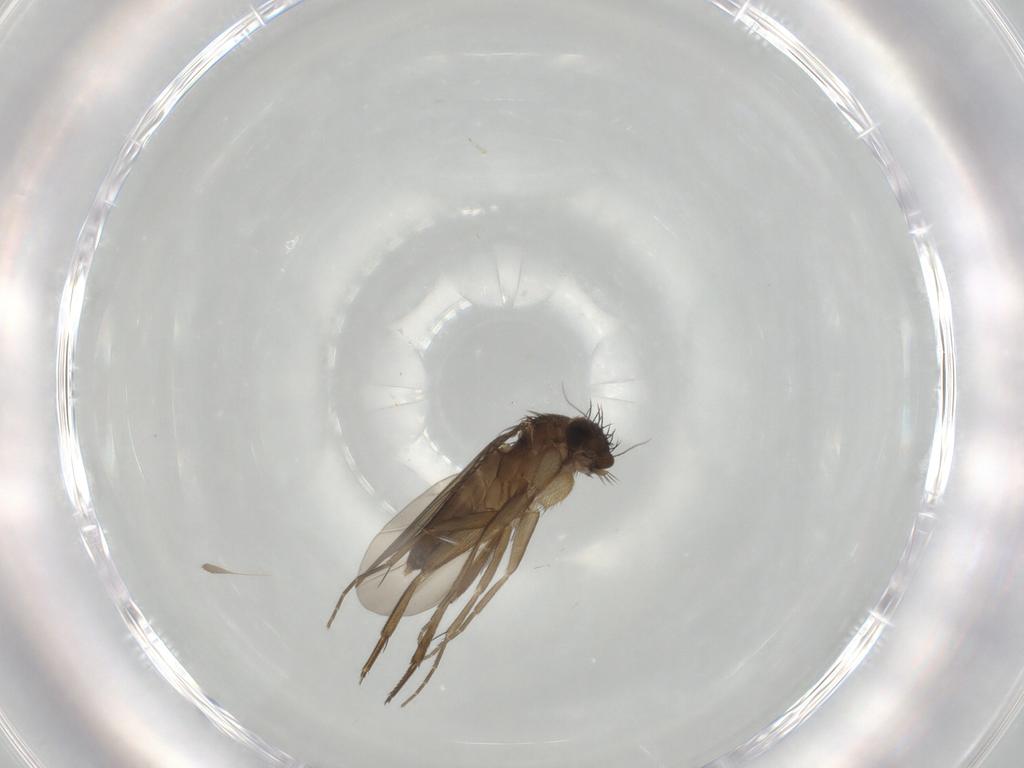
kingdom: Animalia
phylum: Arthropoda
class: Insecta
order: Diptera
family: Phoridae
